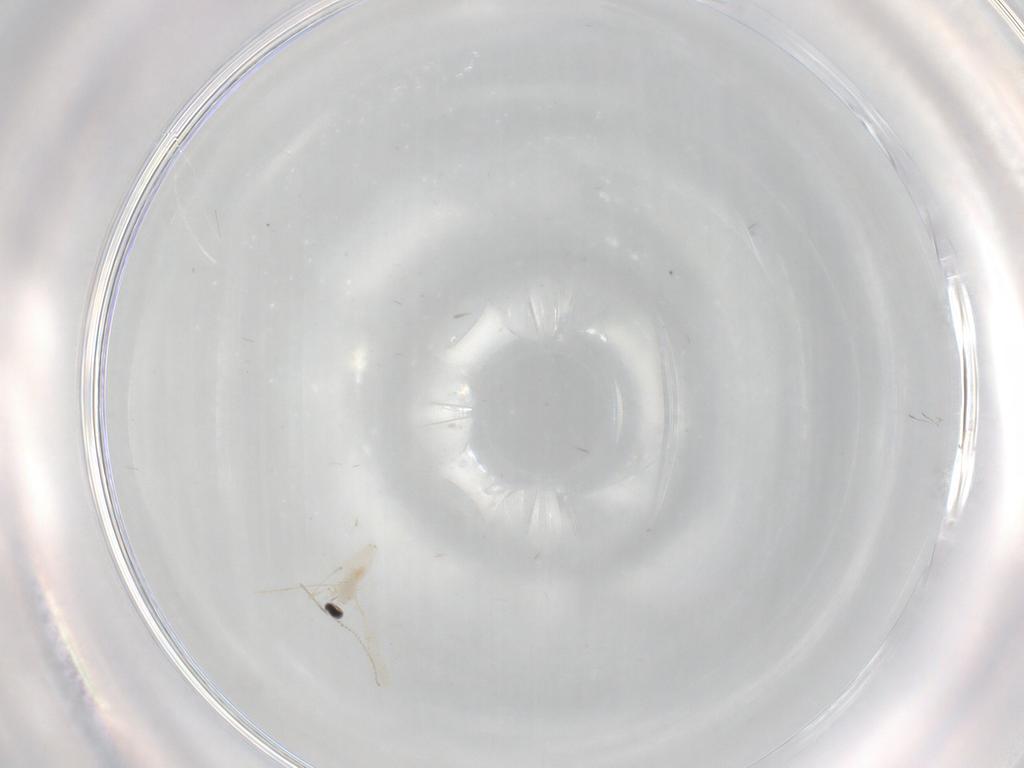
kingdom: Animalia
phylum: Arthropoda
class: Insecta
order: Diptera
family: Cecidomyiidae
